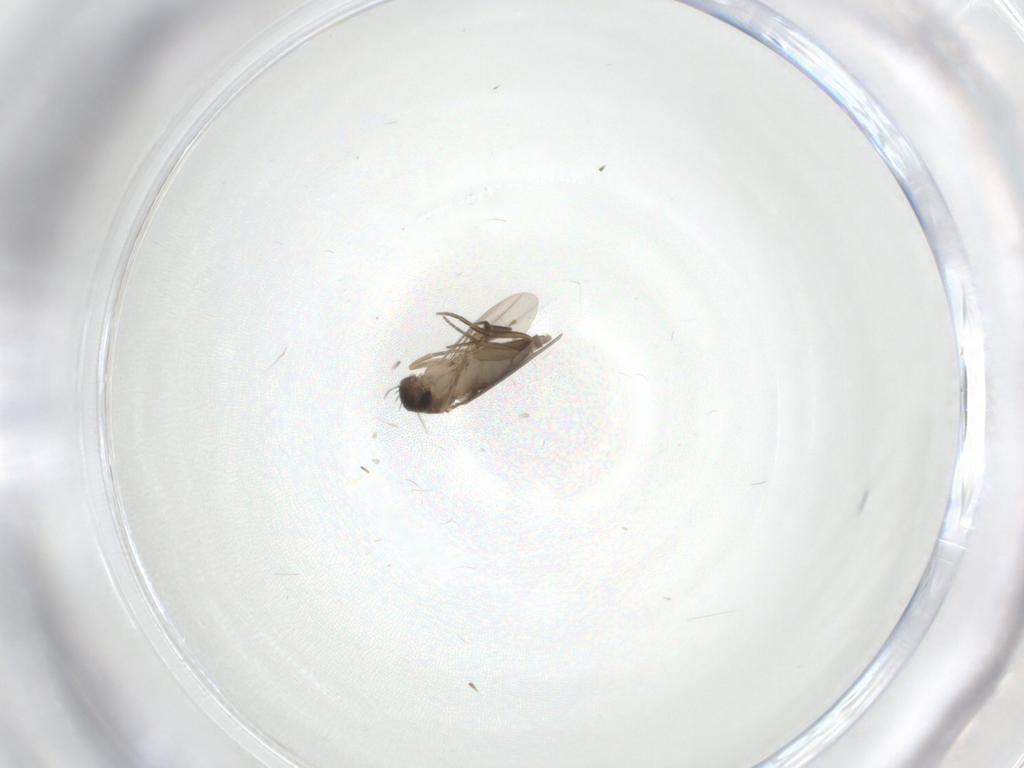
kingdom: Animalia
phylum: Arthropoda
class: Insecta
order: Diptera
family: Phoridae
